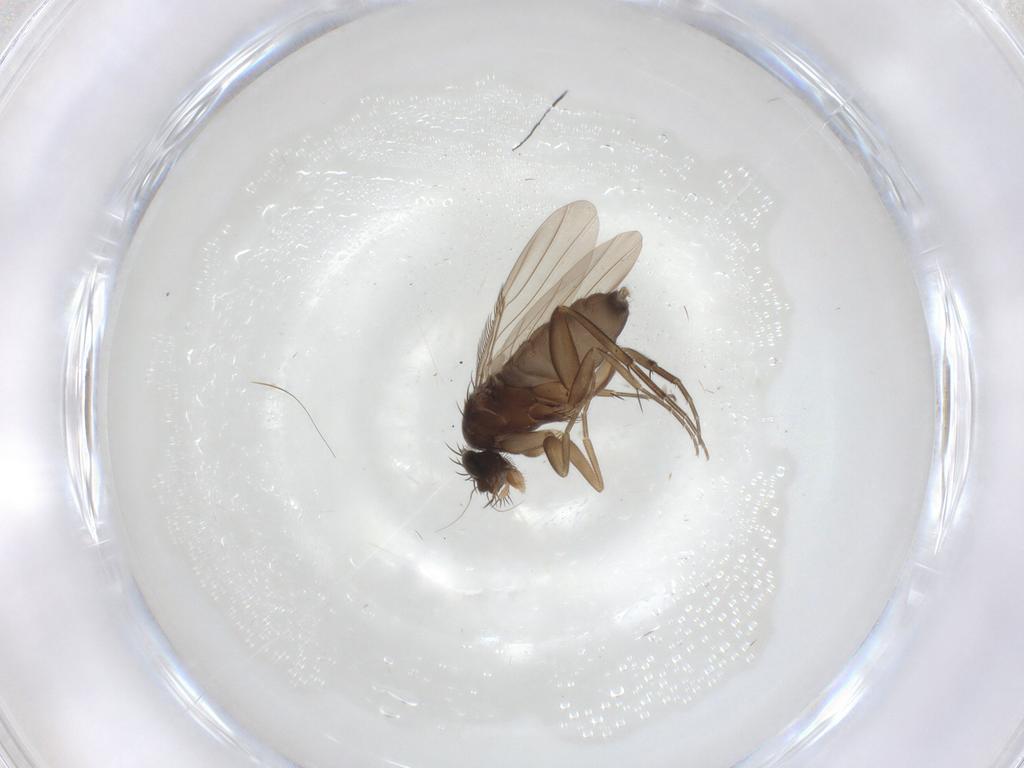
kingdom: Animalia
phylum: Arthropoda
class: Insecta
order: Diptera
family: Phoridae
